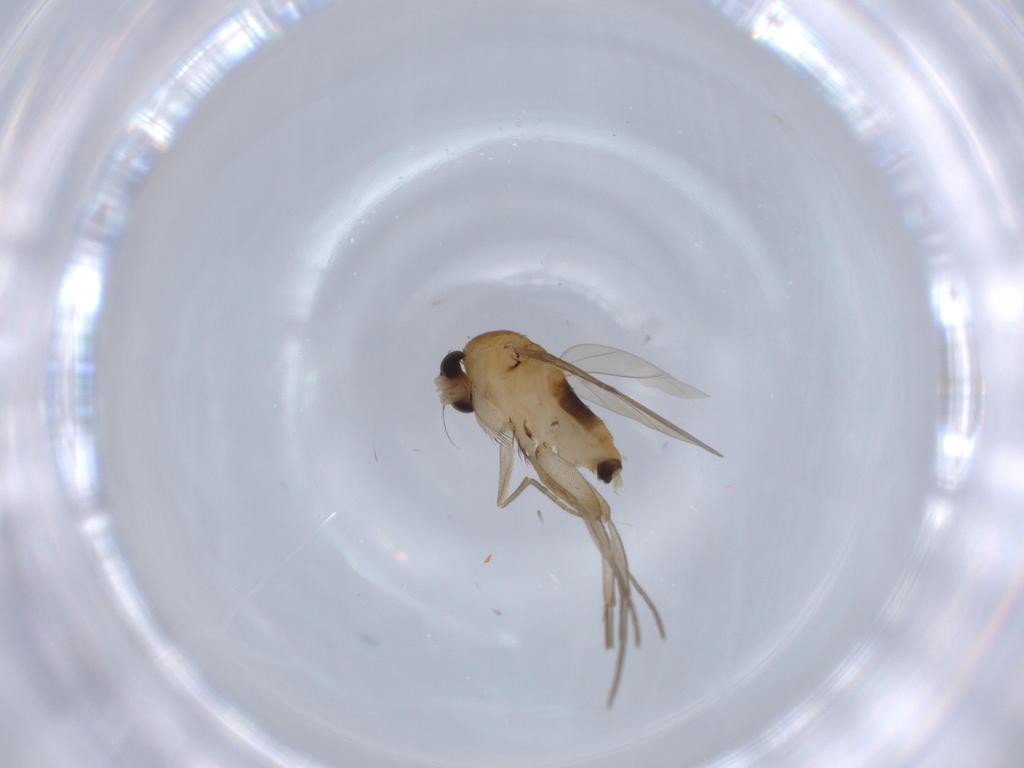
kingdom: Animalia
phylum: Arthropoda
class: Insecta
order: Diptera
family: Phoridae
